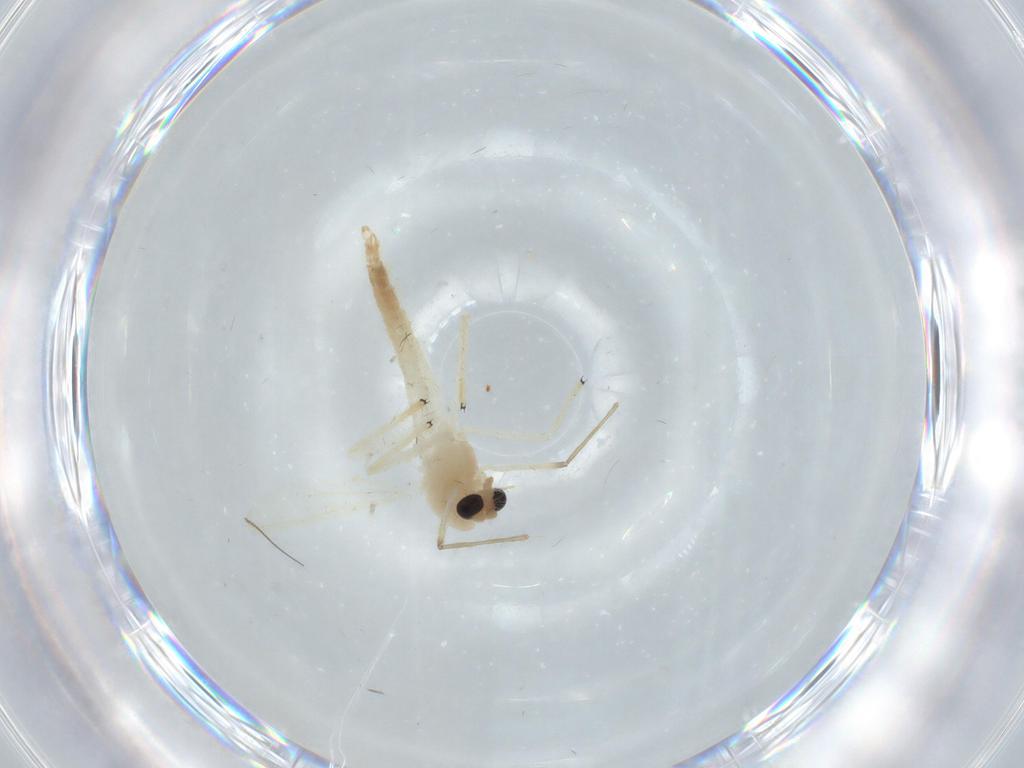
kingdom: Animalia
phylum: Arthropoda
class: Insecta
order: Diptera
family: Chironomidae
